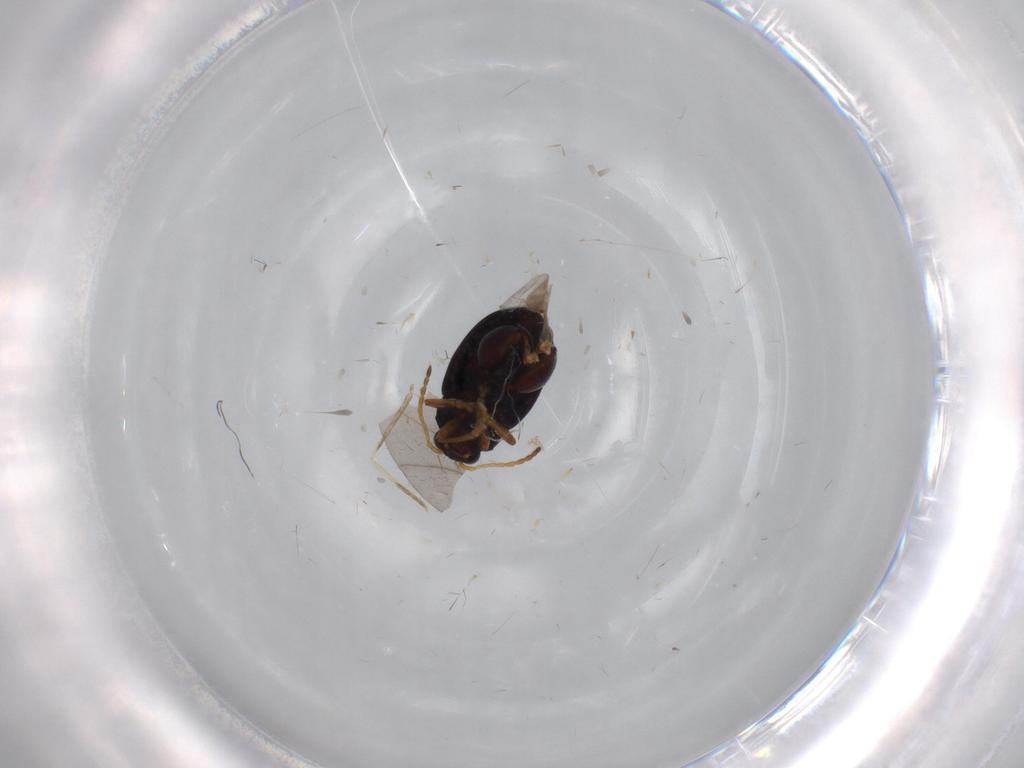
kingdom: Animalia
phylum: Arthropoda
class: Insecta
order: Coleoptera
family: Chrysomelidae
